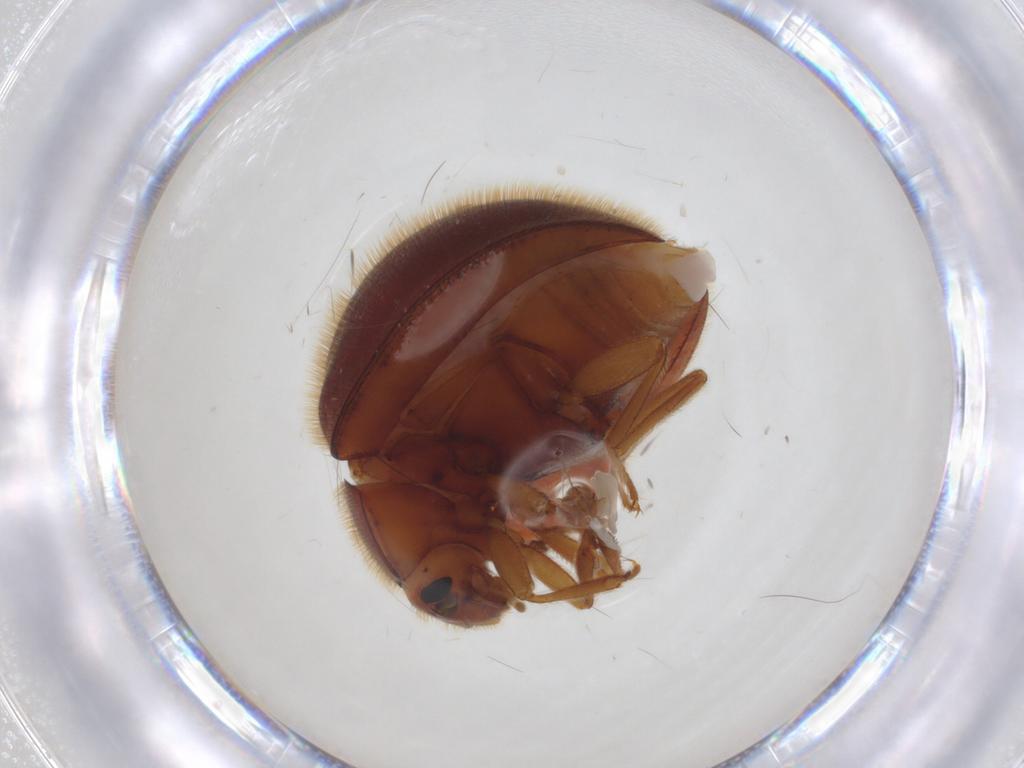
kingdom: Animalia
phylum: Arthropoda
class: Insecta
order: Coleoptera
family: Anamorphidae
